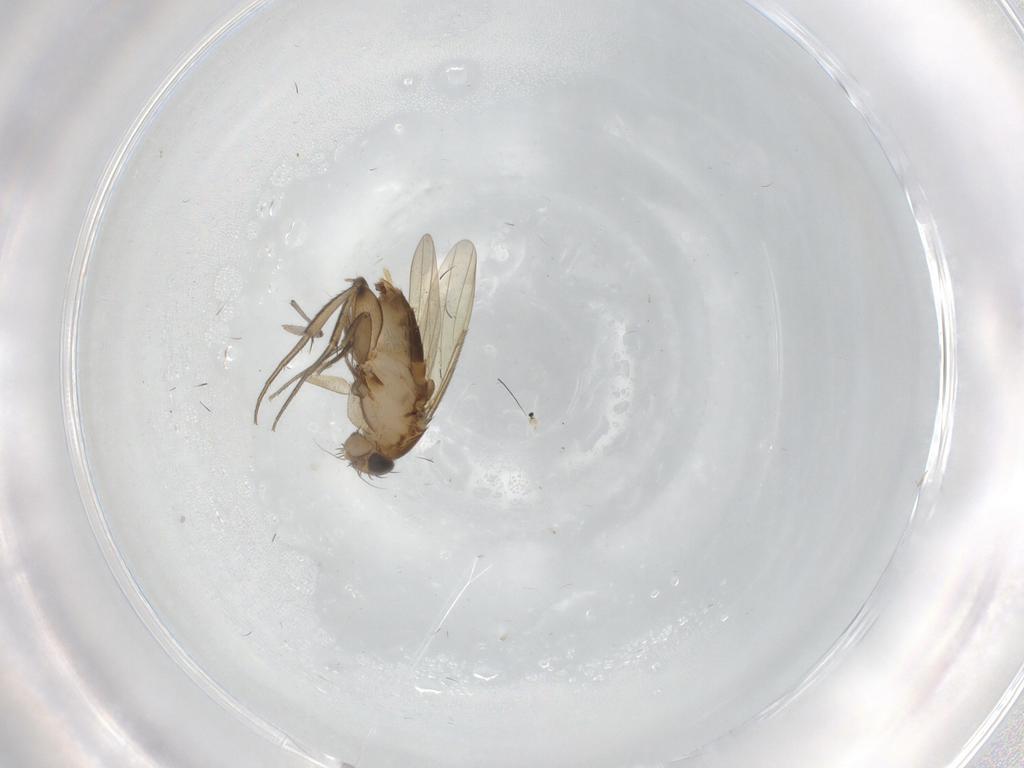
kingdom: Animalia
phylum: Arthropoda
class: Insecta
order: Diptera
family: Phoridae
